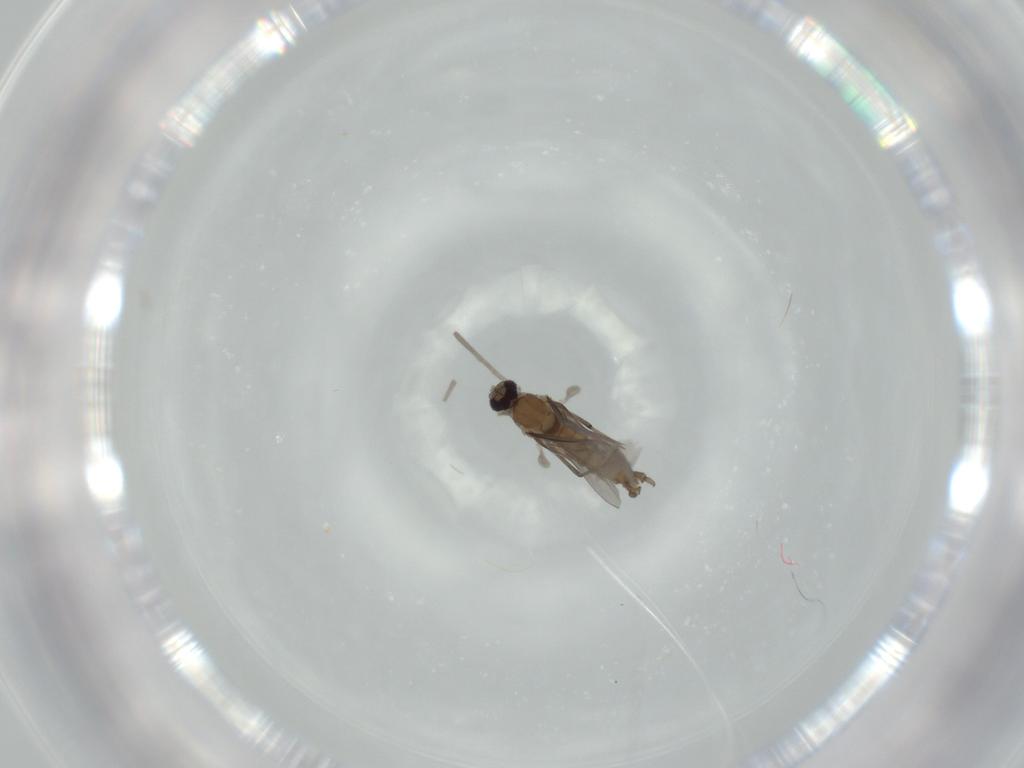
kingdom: Animalia
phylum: Arthropoda
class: Insecta
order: Diptera
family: Cecidomyiidae
